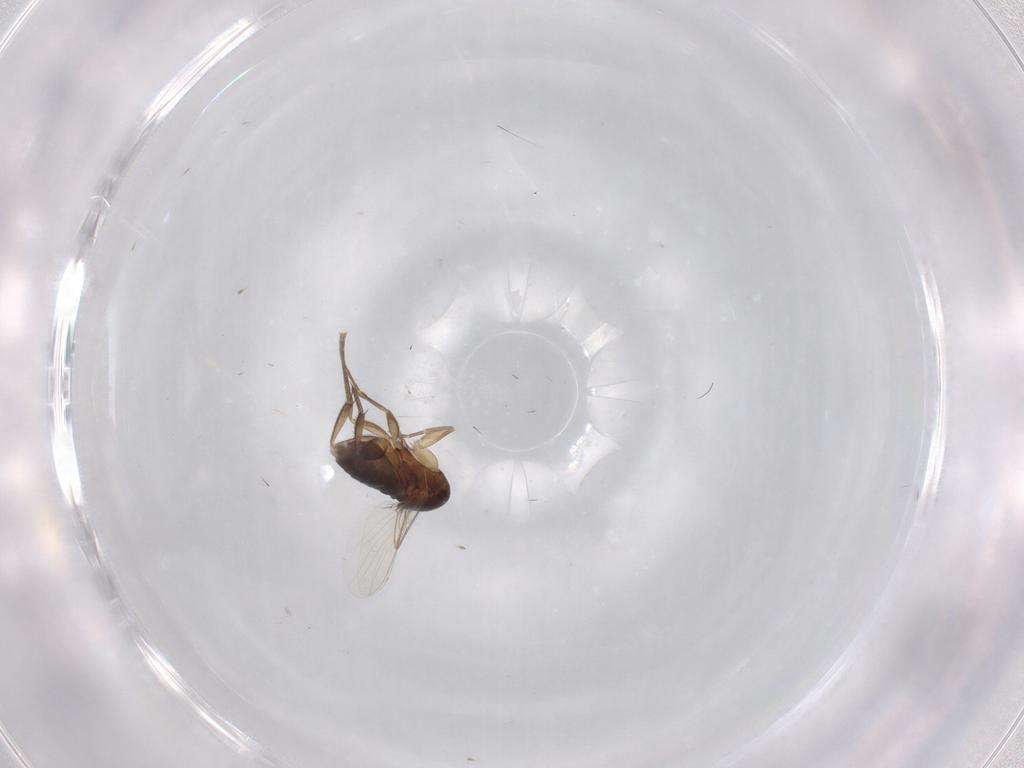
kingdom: Animalia
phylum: Arthropoda
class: Insecta
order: Diptera
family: Phoridae
